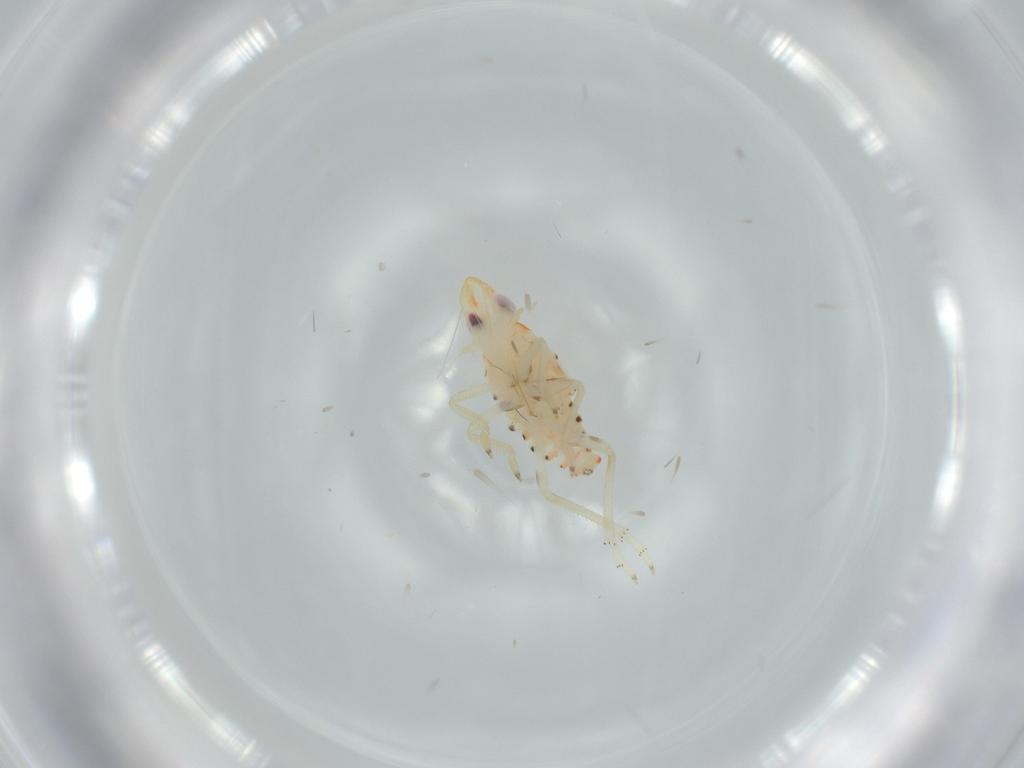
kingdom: Animalia
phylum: Arthropoda
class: Insecta
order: Hemiptera
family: Tropiduchidae
